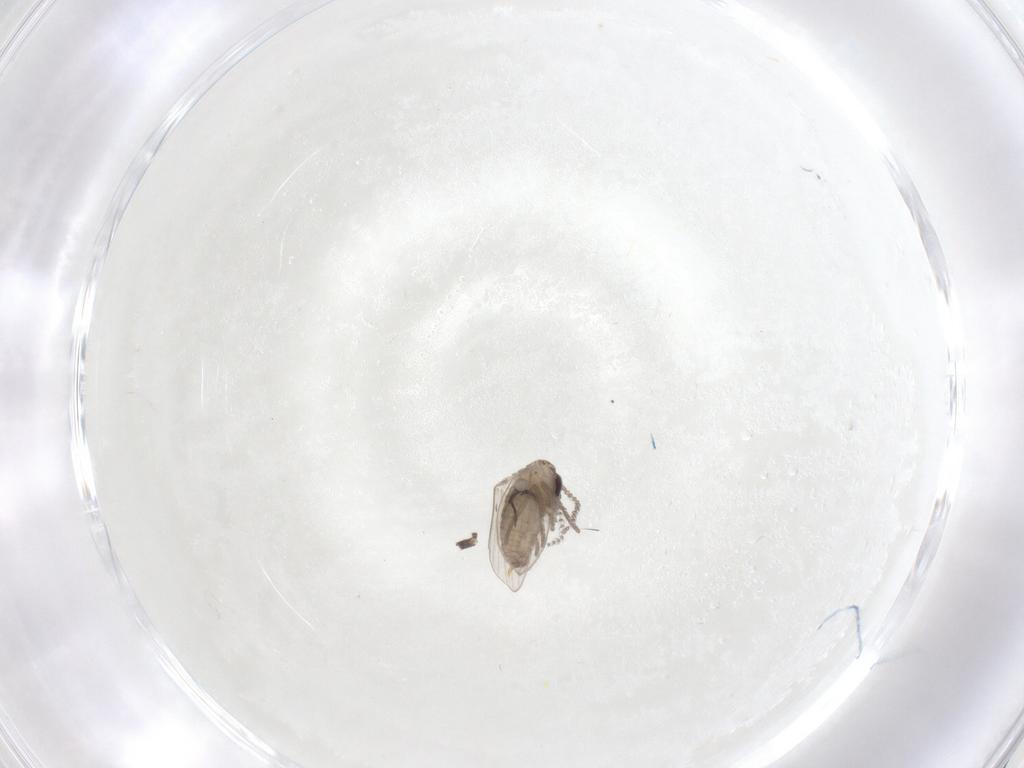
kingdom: Animalia
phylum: Arthropoda
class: Insecta
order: Diptera
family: Psychodidae
